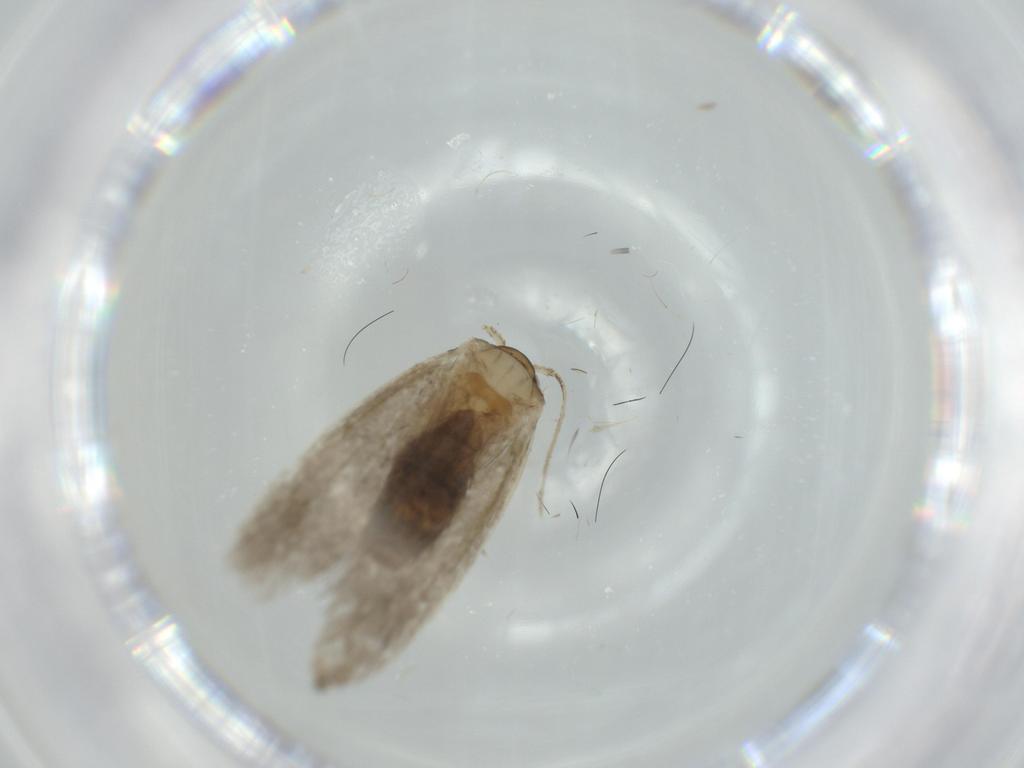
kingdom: Animalia
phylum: Arthropoda
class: Insecta
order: Lepidoptera
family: Tineidae
